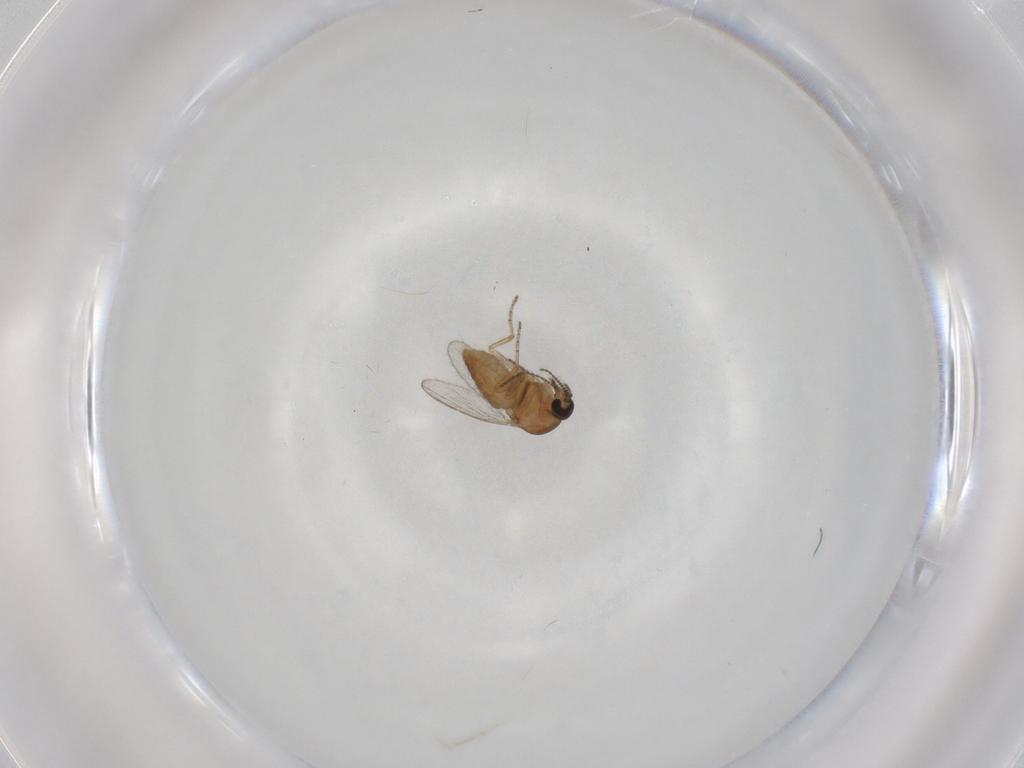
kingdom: Animalia
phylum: Arthropoda
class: Insecta
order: Diptera
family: Ceratopogonidae
